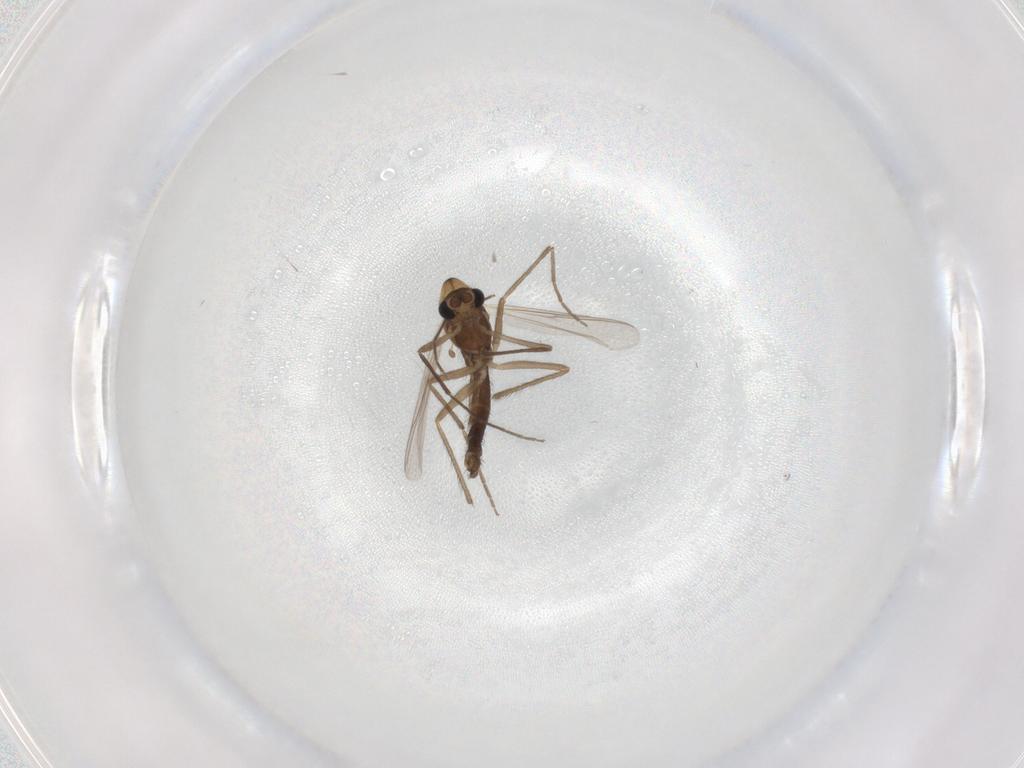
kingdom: Animalia
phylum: Arthropoda
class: Insecta
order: Diptera
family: Chironomidae
